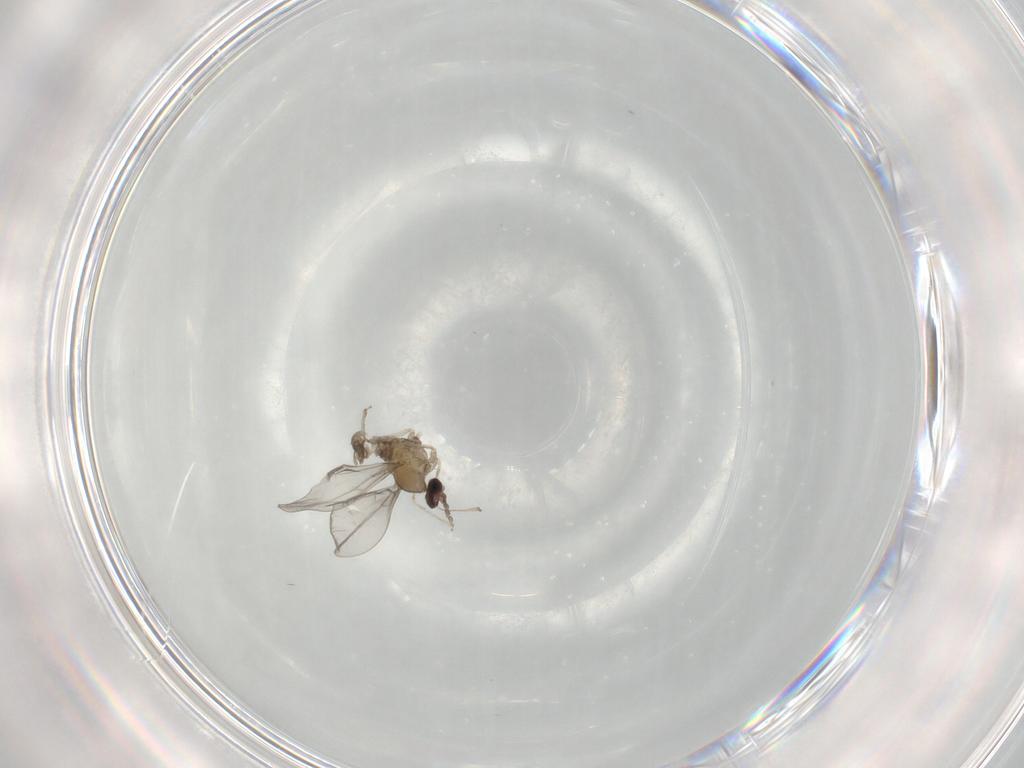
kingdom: Animalia
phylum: Arthropoda
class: Insecta
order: Diptera
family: Cecidomyiidae
